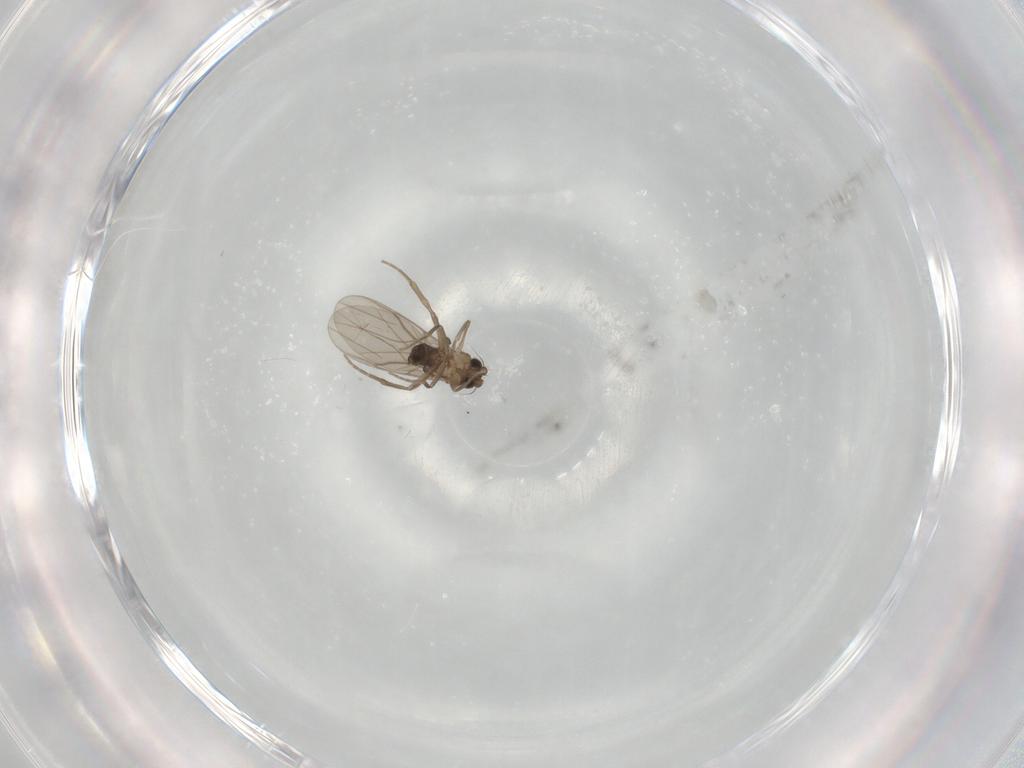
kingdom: Animalia
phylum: Arthropoda
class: Insecta
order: Diptera
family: Phoridae
